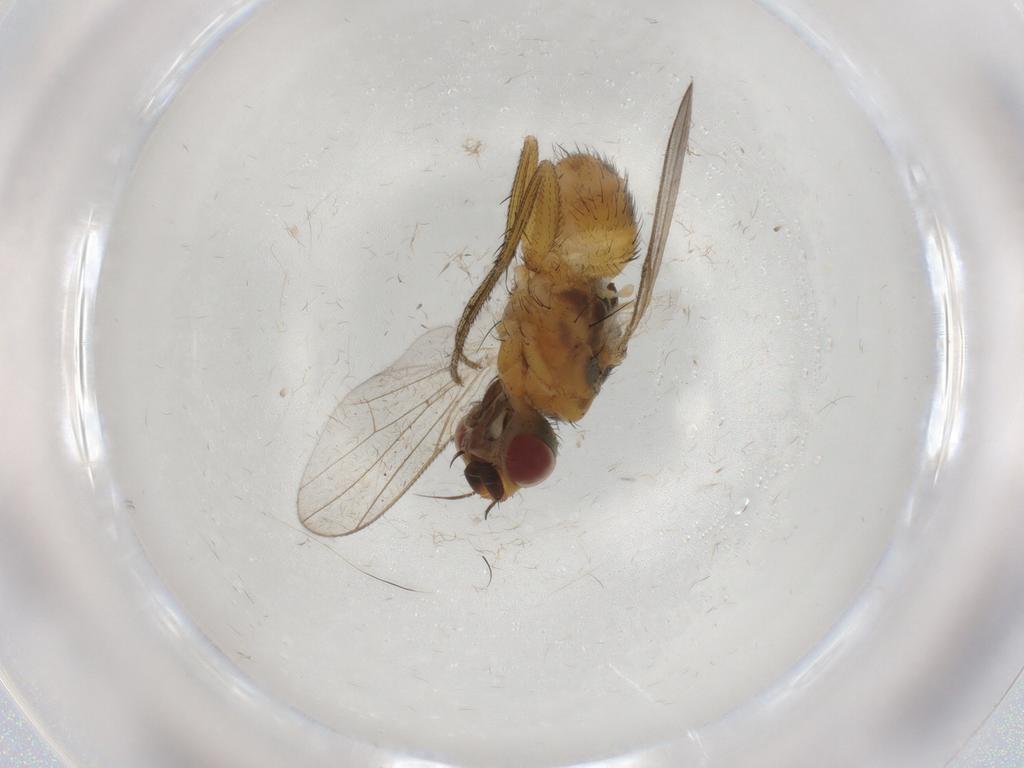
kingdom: Animalia
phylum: Arthropoda
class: Insecta
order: Diptera
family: Muscidae
